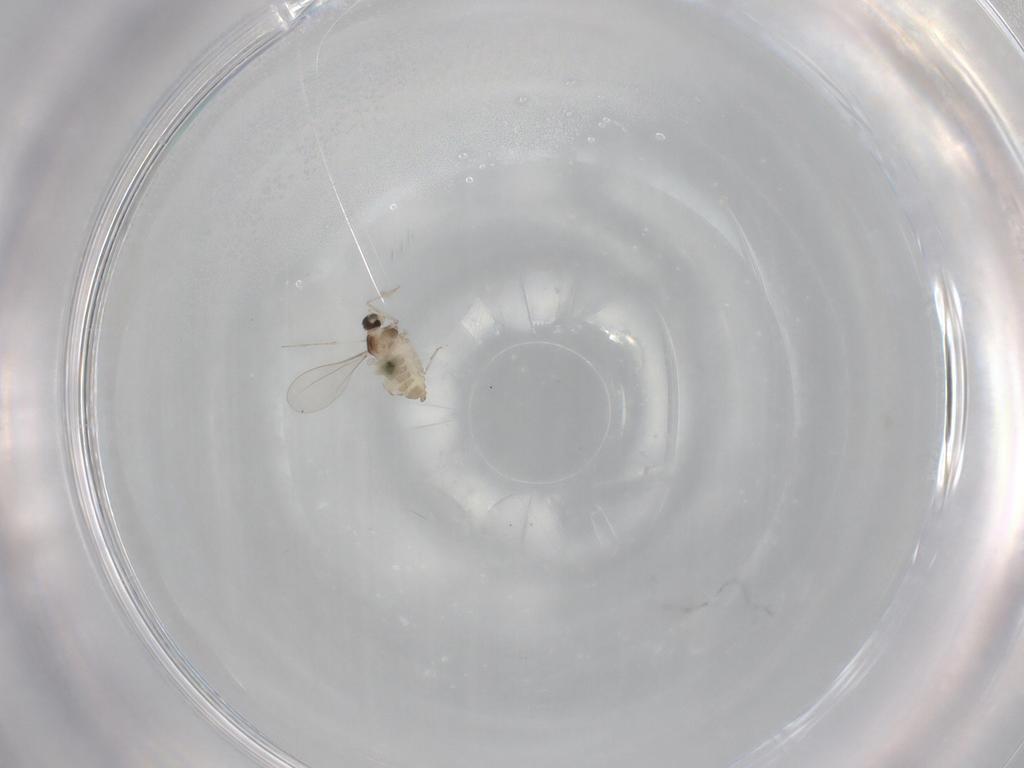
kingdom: Animalia
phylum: Arthropoda
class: Insecta
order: Diptera
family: Cecidomyiidae
